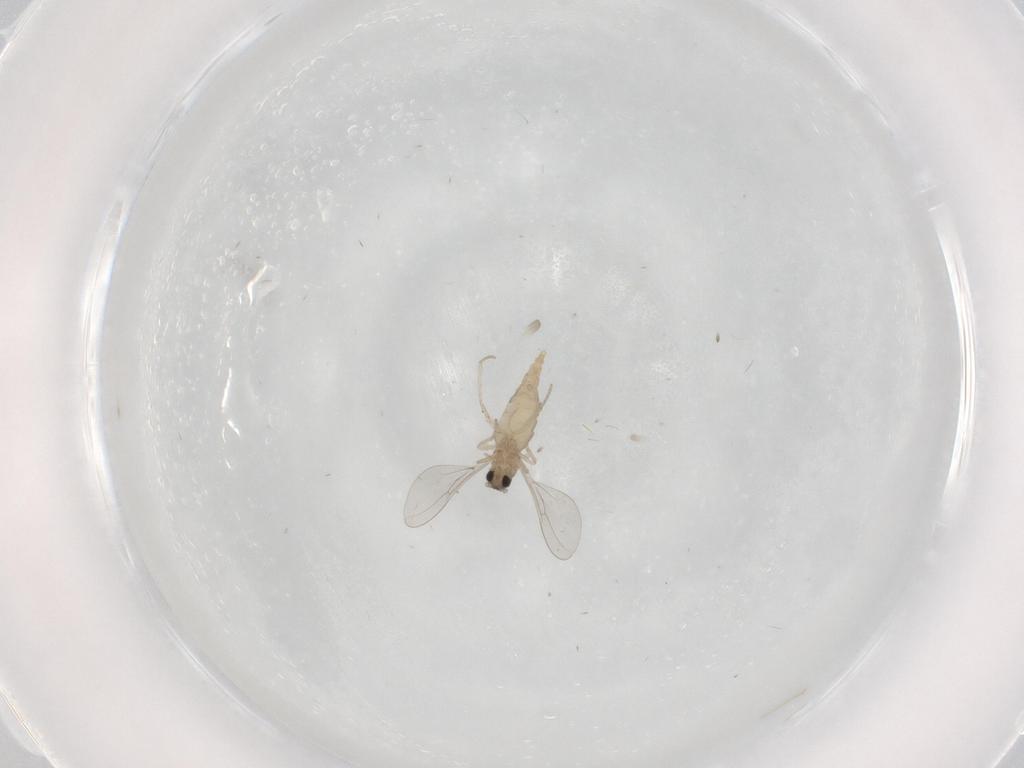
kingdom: Animalia
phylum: Arthropoda
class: Insecta
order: Diptera
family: Cecidomyiidae
